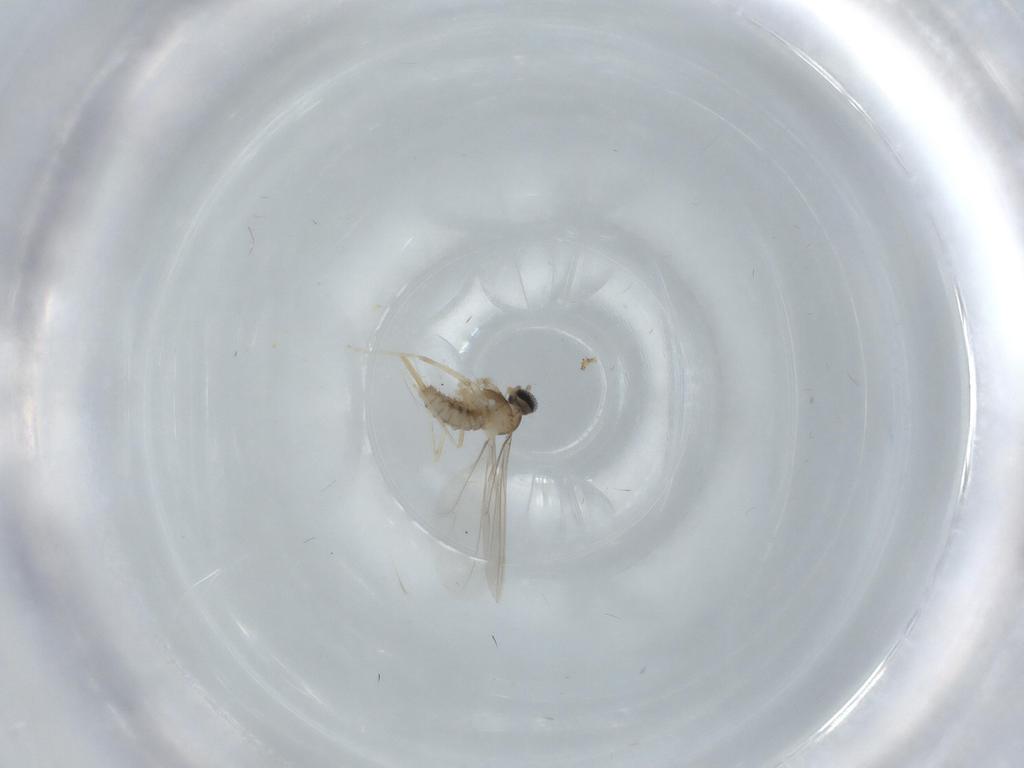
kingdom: Animalia
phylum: Arthropoda
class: Insecta
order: Diptera
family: Cecidomyiidae
